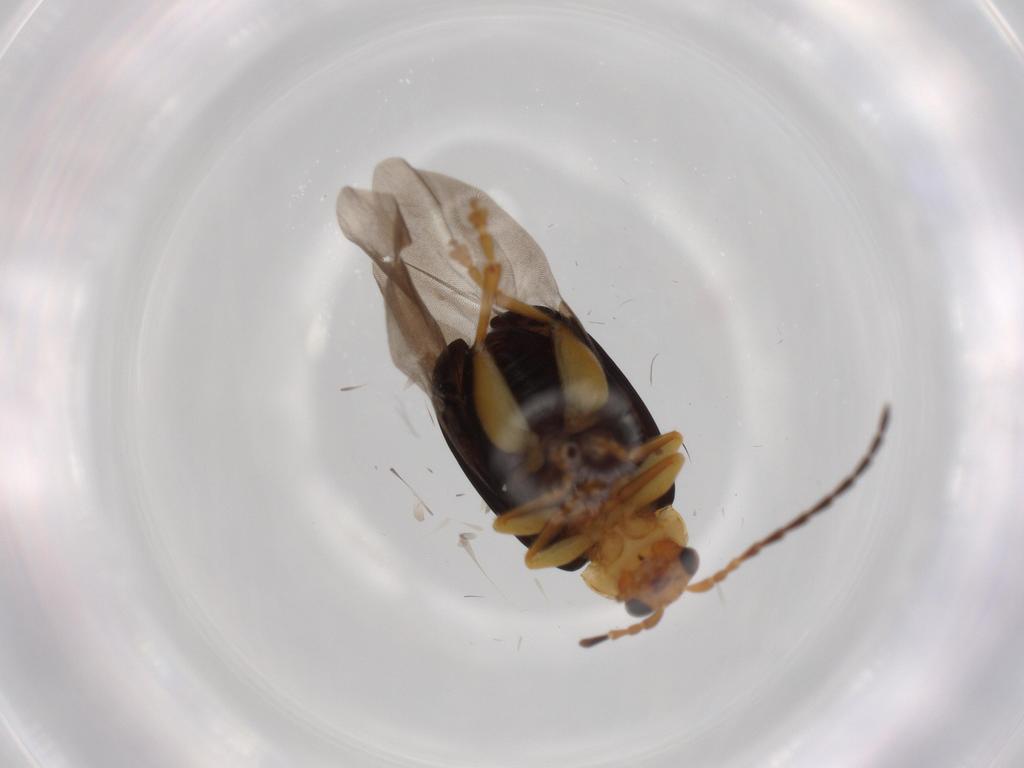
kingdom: Animalia
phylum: Arthropoda
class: Insecta
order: Coleoptera
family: Chrysomelidae
